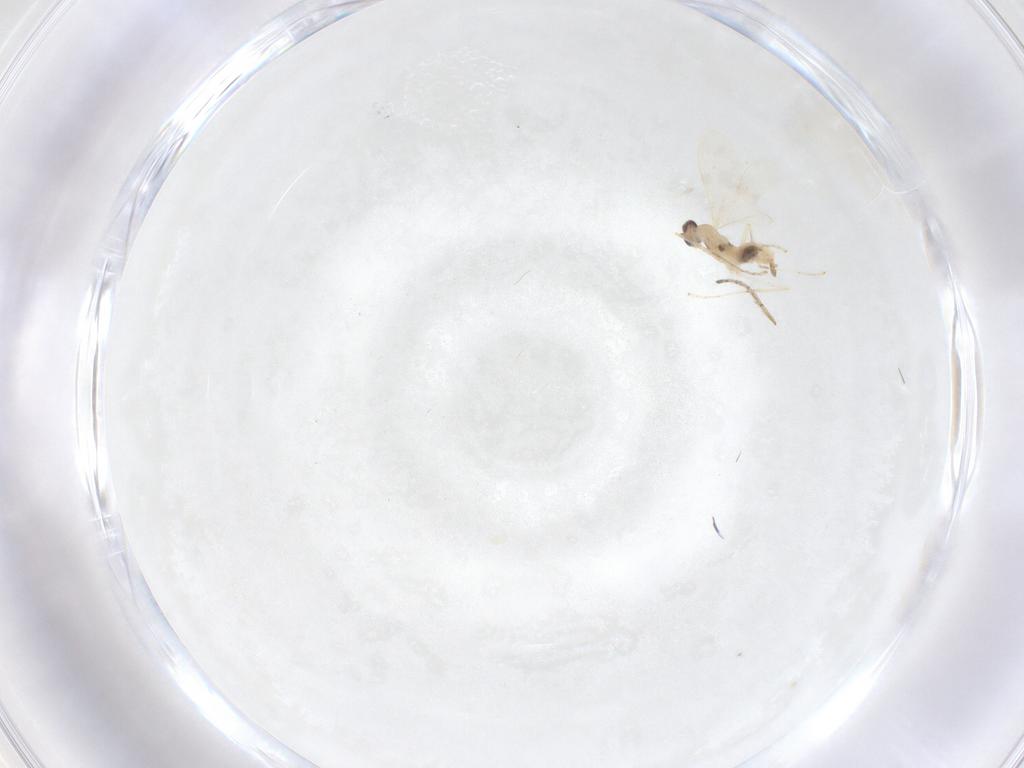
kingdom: Animalia
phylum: Arthropoda
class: Insecta
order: Diptera
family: Cecidomyiidae
